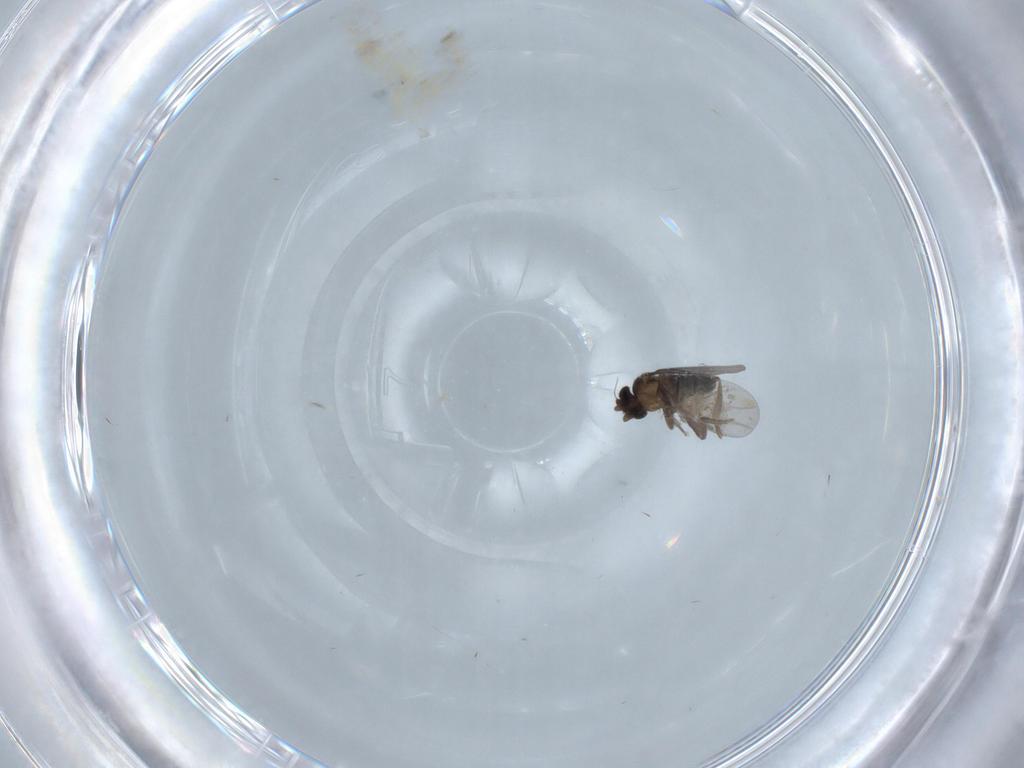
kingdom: Animalia
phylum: Arthropoda
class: Insecta
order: Diptera
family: Chironomidae
